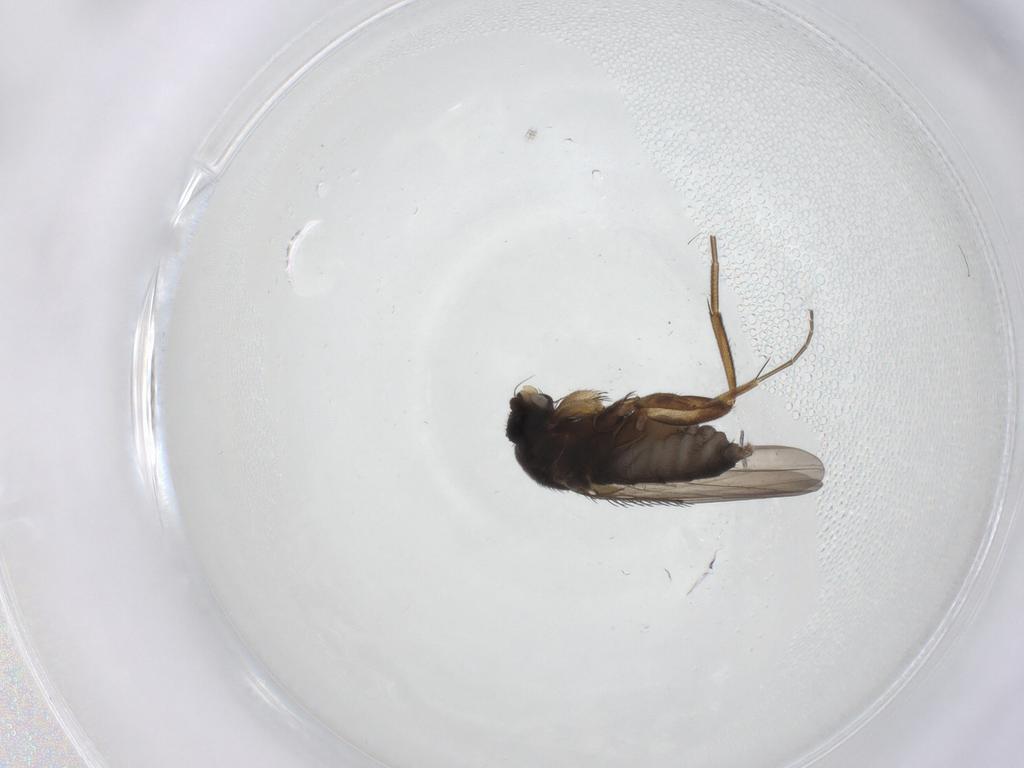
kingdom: Animalia
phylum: Arthropoda
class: Insecta
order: Diptera
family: Phoridae
